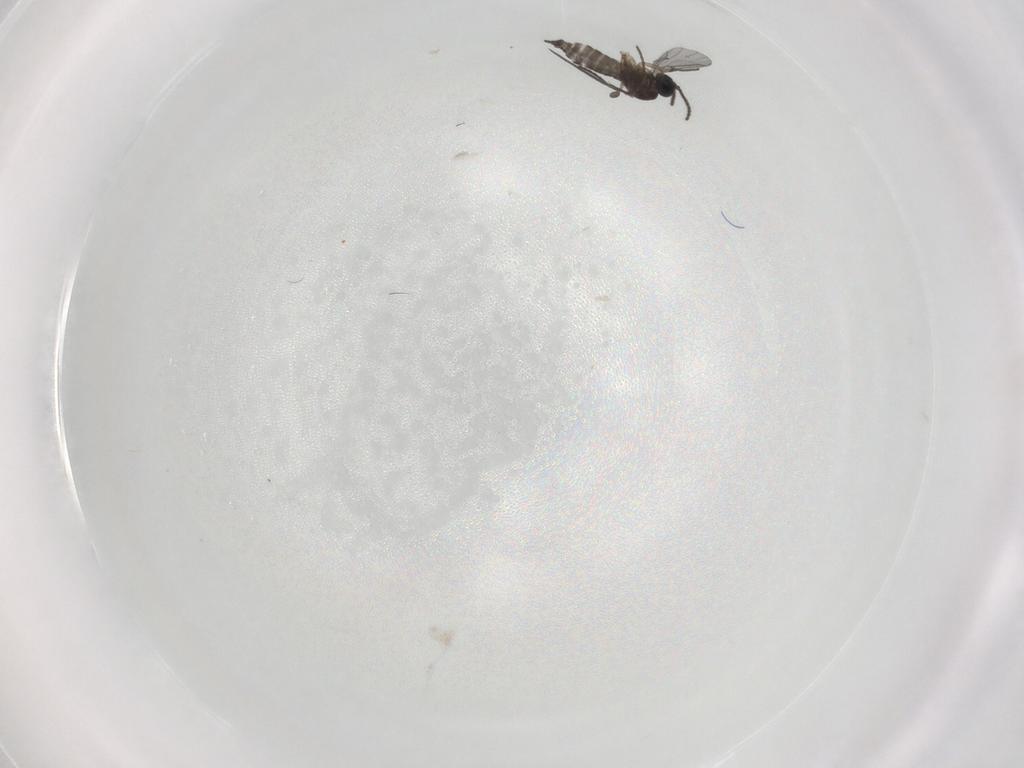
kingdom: Animalia
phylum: Arthropoda
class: Insecta
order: Diptera
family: Sciaridae
